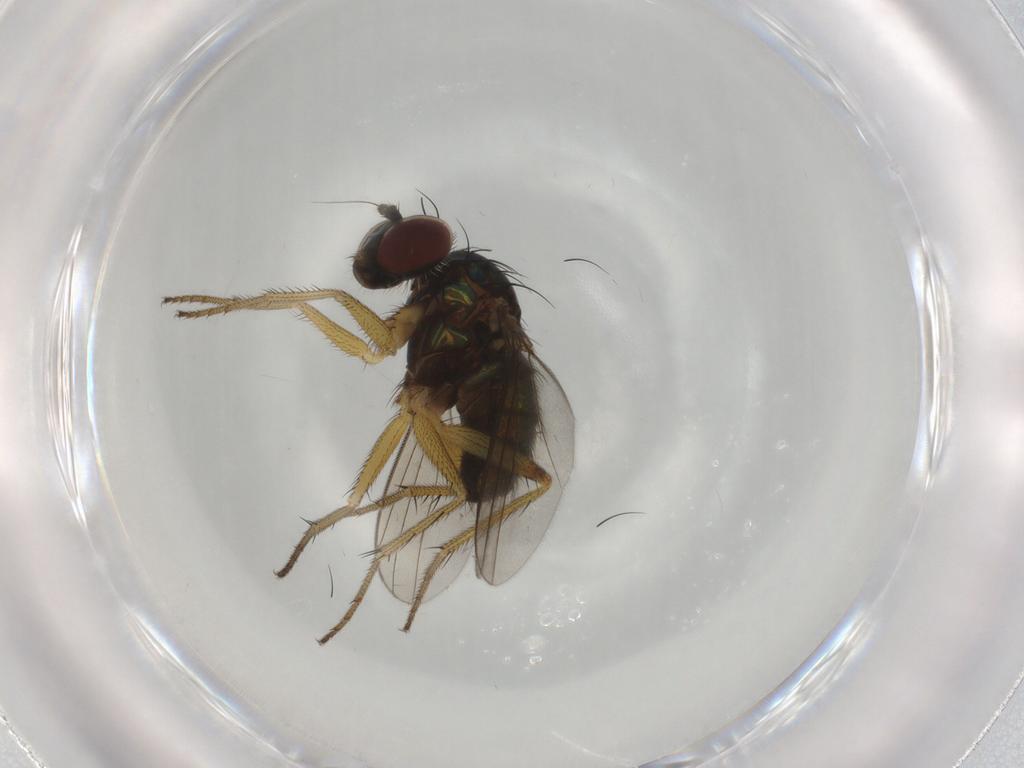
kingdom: Animalia
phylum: Arthropoda
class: Insecta
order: Diptera
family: Dolichopodidae
